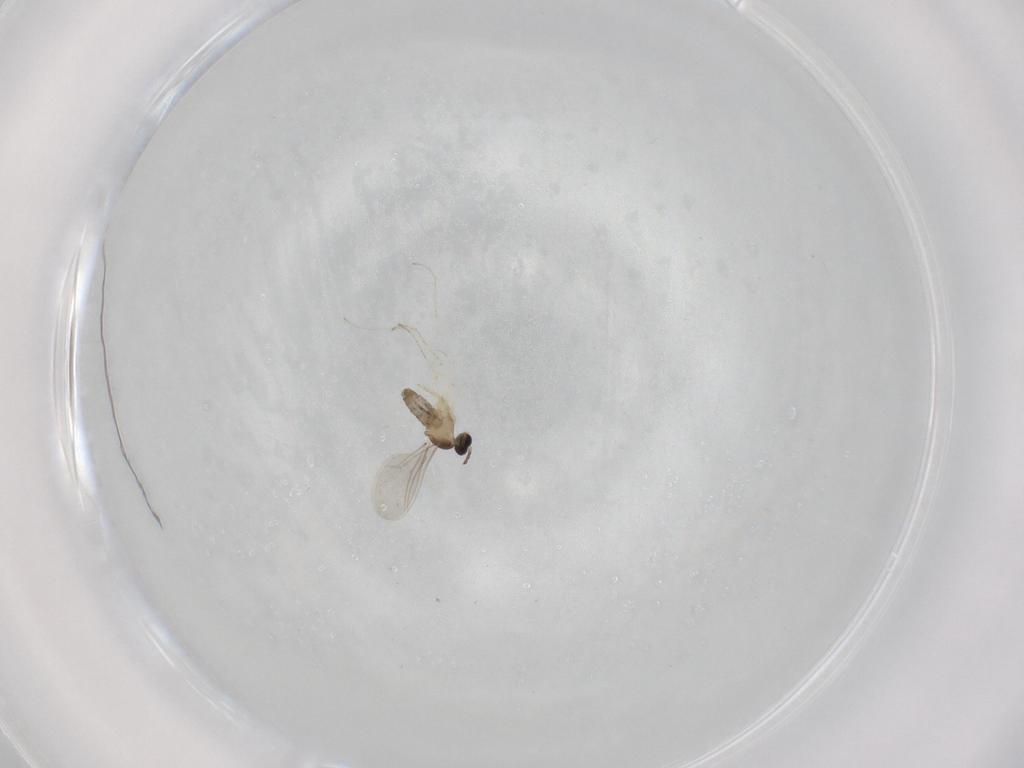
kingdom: Animalia
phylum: Arthropoda
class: Insecta
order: Diptera
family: Cecidomyiidae
